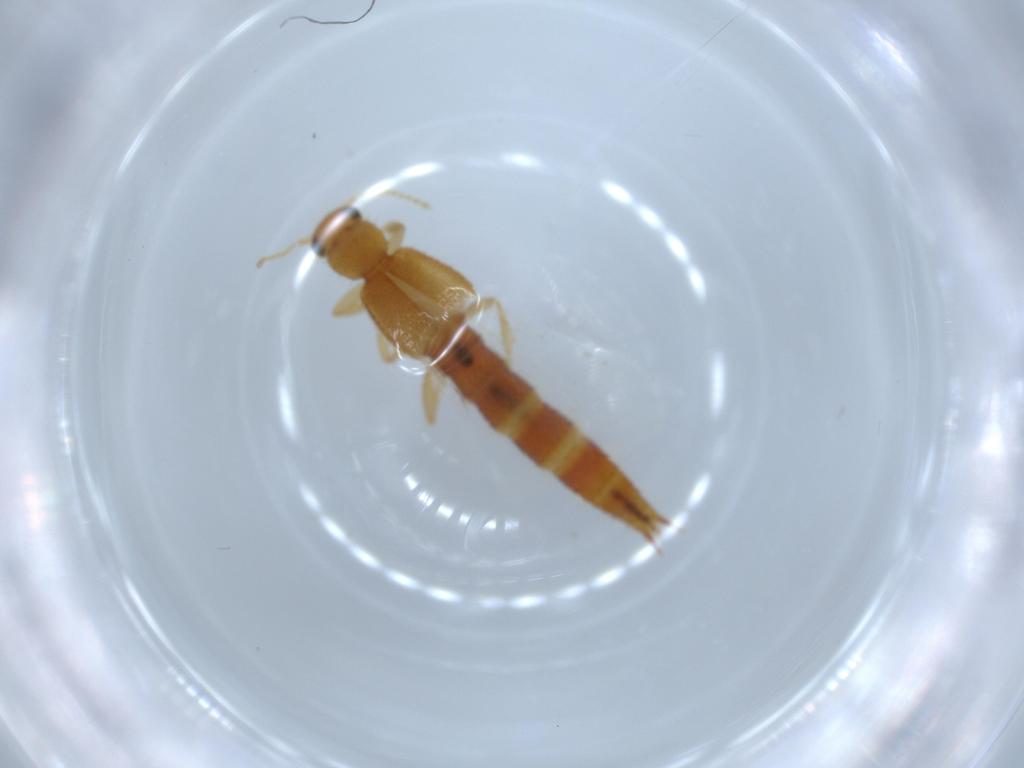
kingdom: Animalia
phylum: Arthropoda
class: Insecta
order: Coleoptera
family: Staphylinidae
